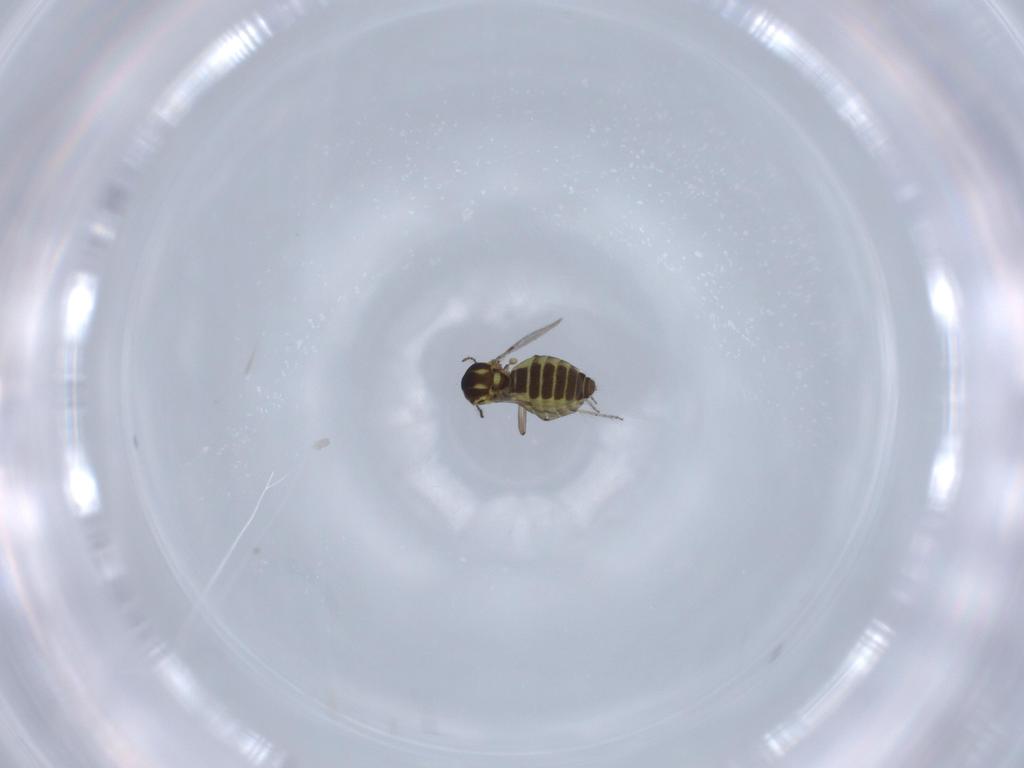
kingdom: Animalia
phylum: Arthropoda
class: Insecta
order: Diptera
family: Ceratopogonidae
